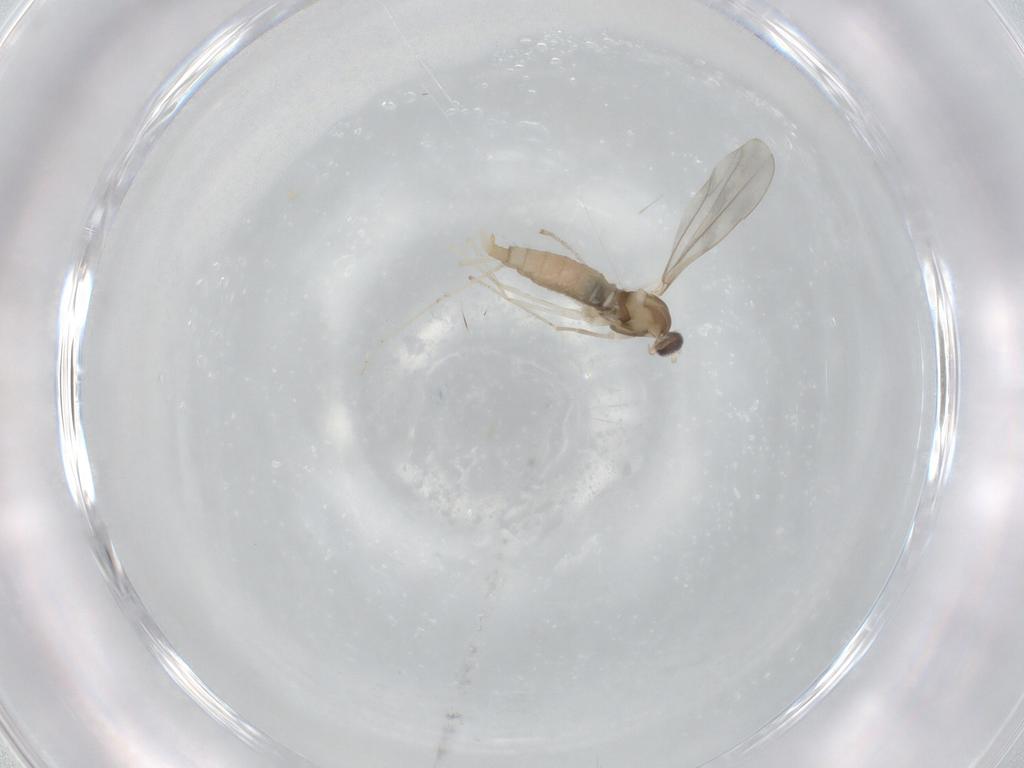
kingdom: Animalia
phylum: Arthropoda
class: Insecta
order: Diptera
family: Cecidomyiidae
